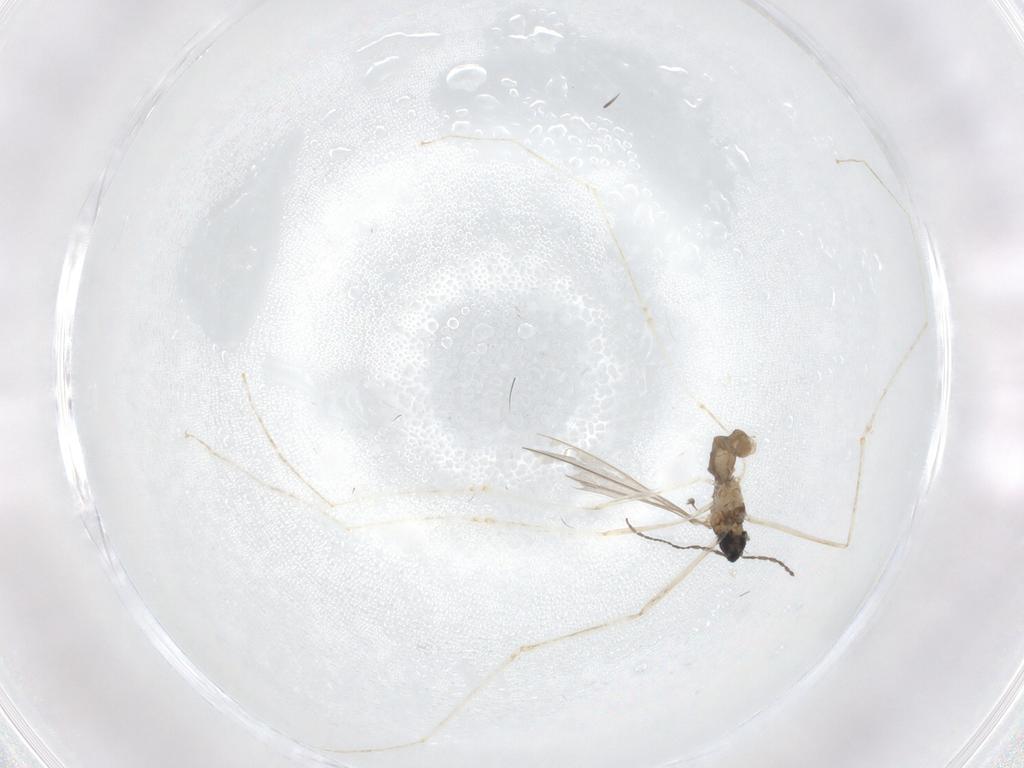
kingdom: Animalia
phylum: Arthropoda
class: Insecta
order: Diptera
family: Cecidomyiidae
